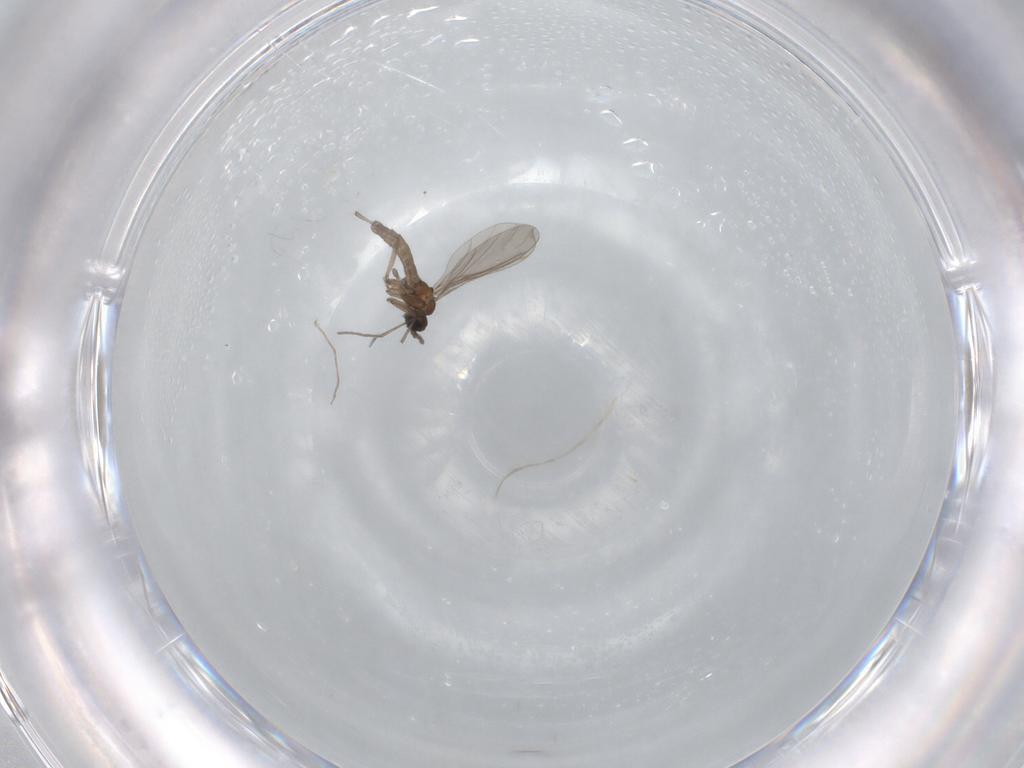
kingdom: Animalia
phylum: Arthropoda
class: Insecta
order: Diptera
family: Sciaridae
